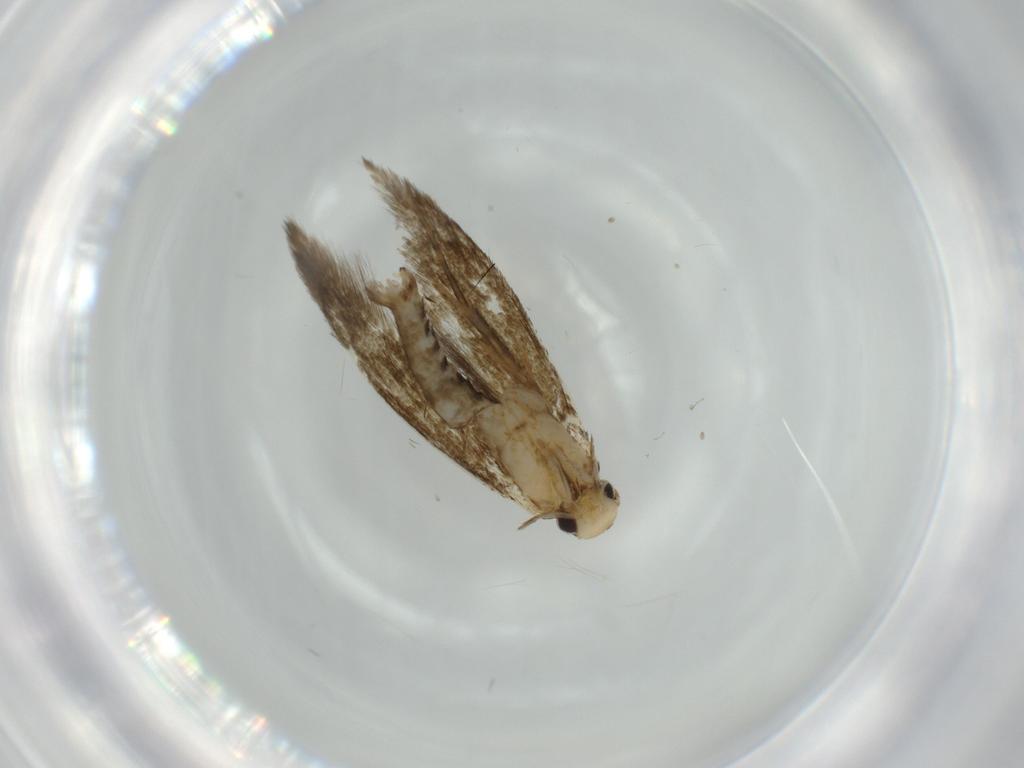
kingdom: Animalia
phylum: Arthropoda
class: Insecta
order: Lepidoptera
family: Tineidae
